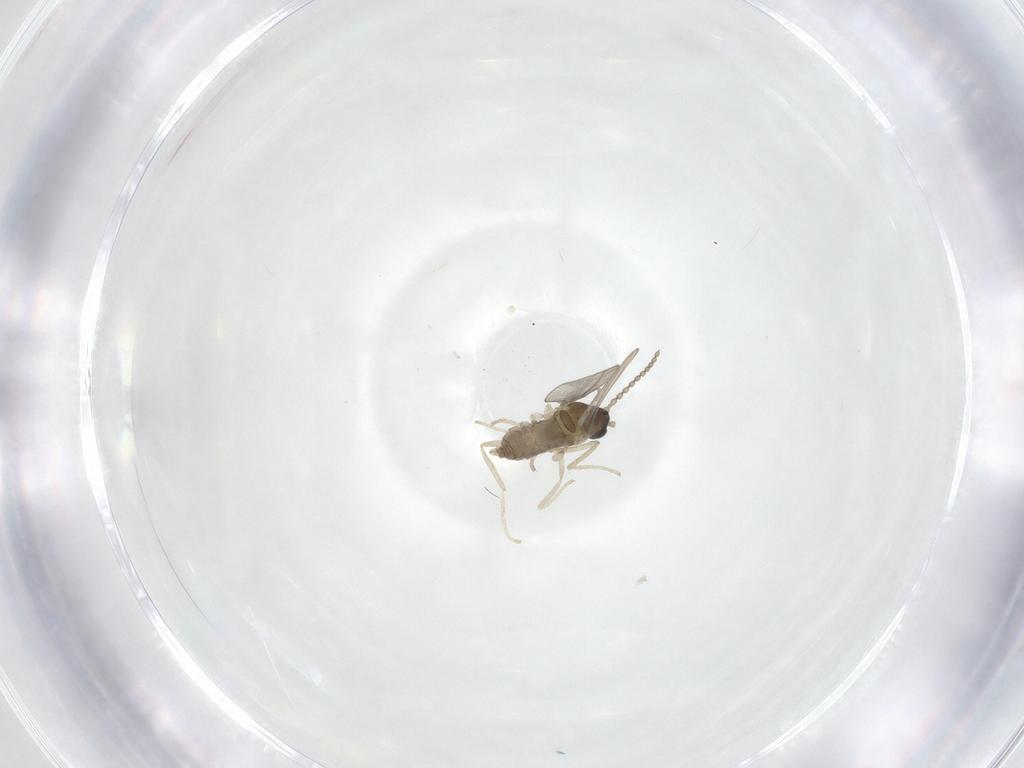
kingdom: Animalia
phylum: Arthropoda
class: Insecta
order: Diptera
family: Cecidomyiidae
